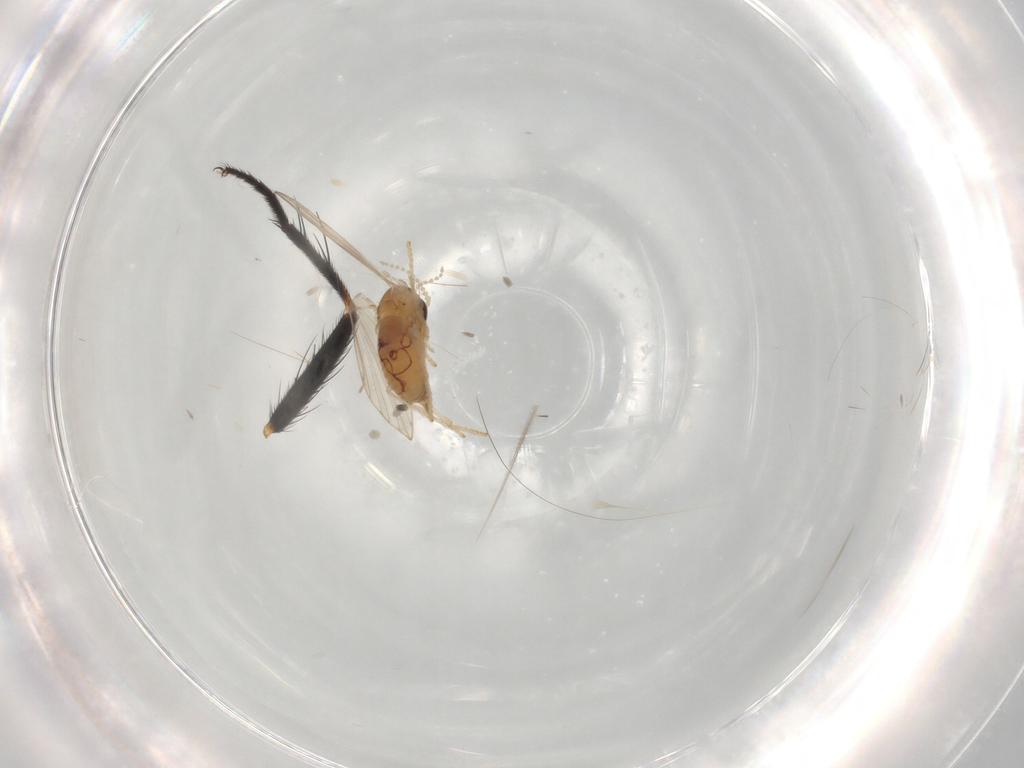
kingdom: Animalia
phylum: Arthropoda
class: Insecta
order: Diptera
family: Psychodidae
